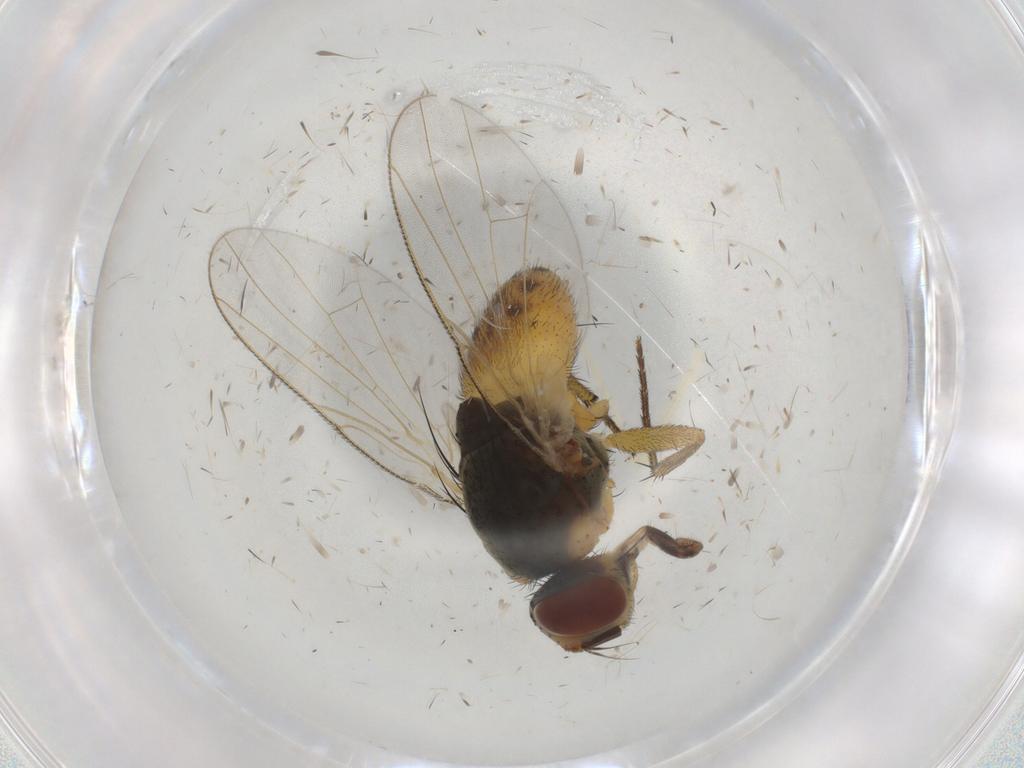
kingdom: Animalia
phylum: Arthropoda
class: Insecta
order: Diptera
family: Muscidae
